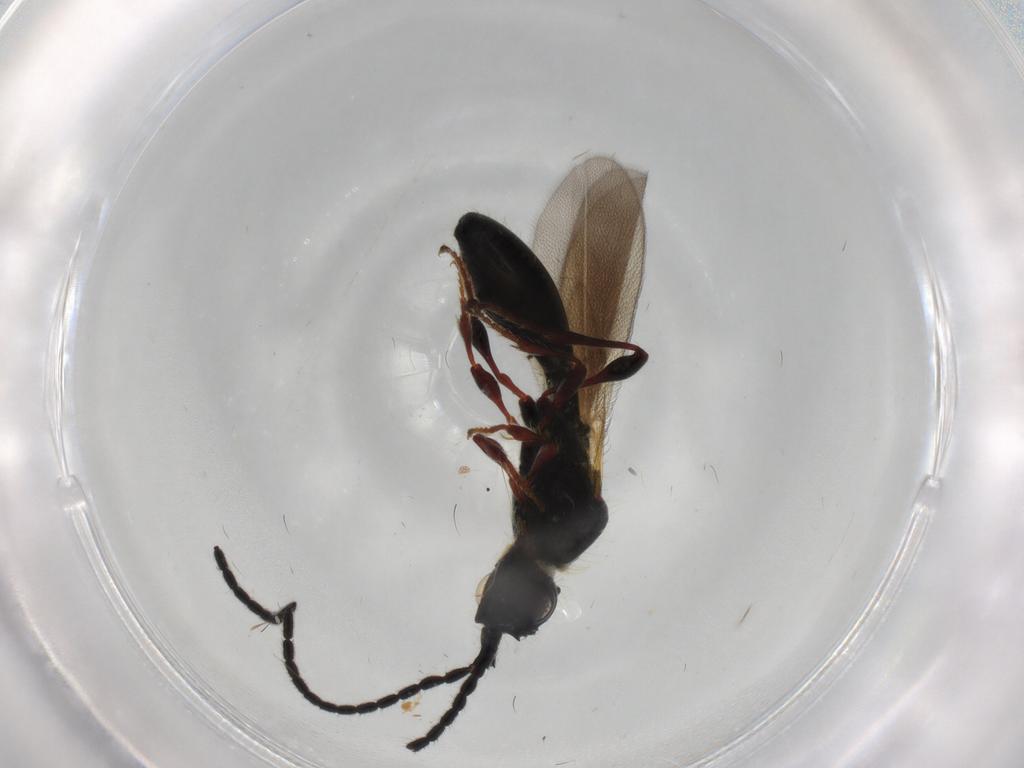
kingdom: Animalia
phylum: Arthropoda
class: Insecta
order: Hymenoptera
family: Diapriidae
